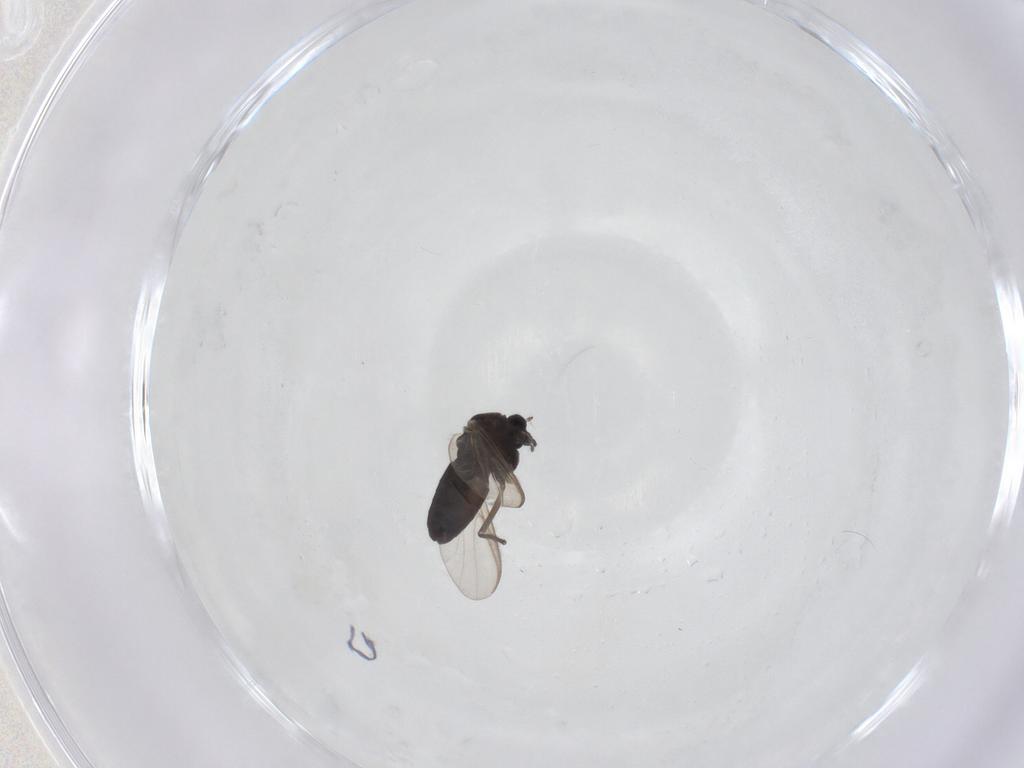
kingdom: Animalia
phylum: Arthropoda
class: Insecta
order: Diptera
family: Chironomidae
